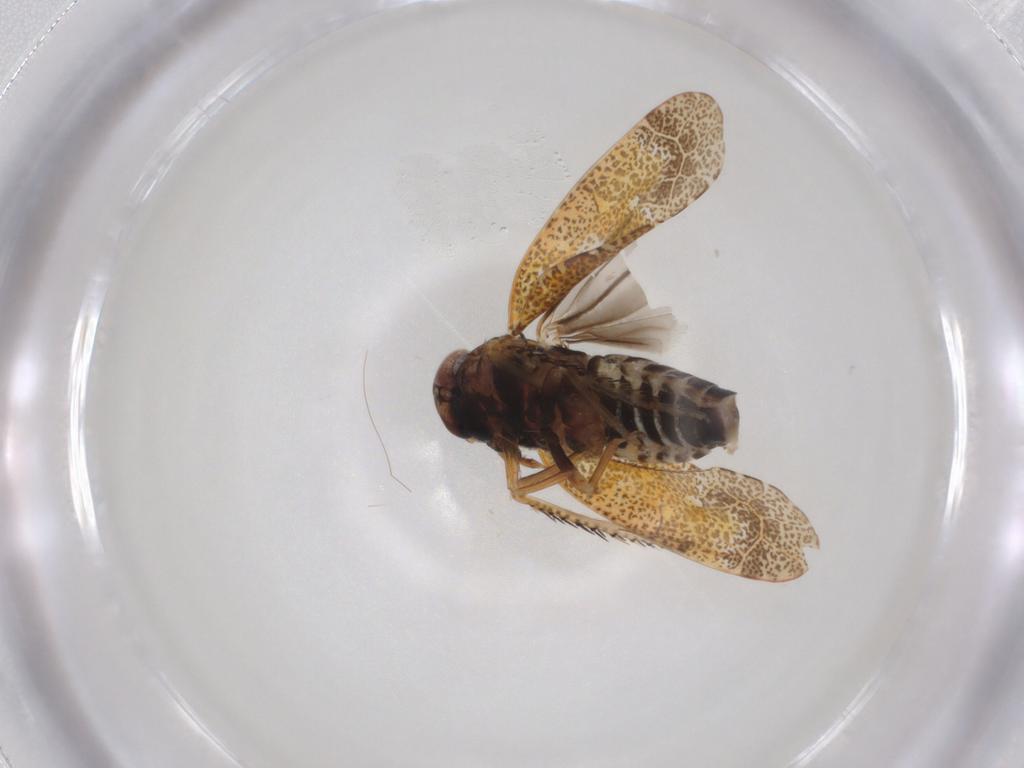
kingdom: Animalia
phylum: Arthropoda
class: Insecta
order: Hemiptera
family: Cicadellidae
